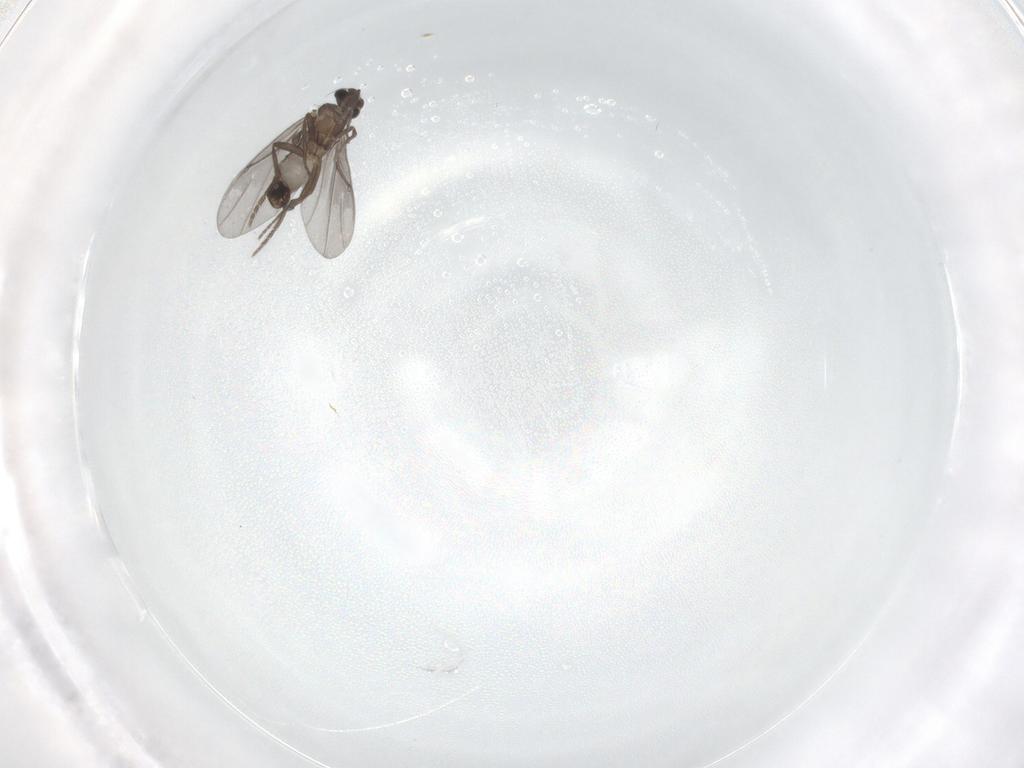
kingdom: Animalia
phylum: Arthropoda
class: Insecta
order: Diptera
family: Phoridae
